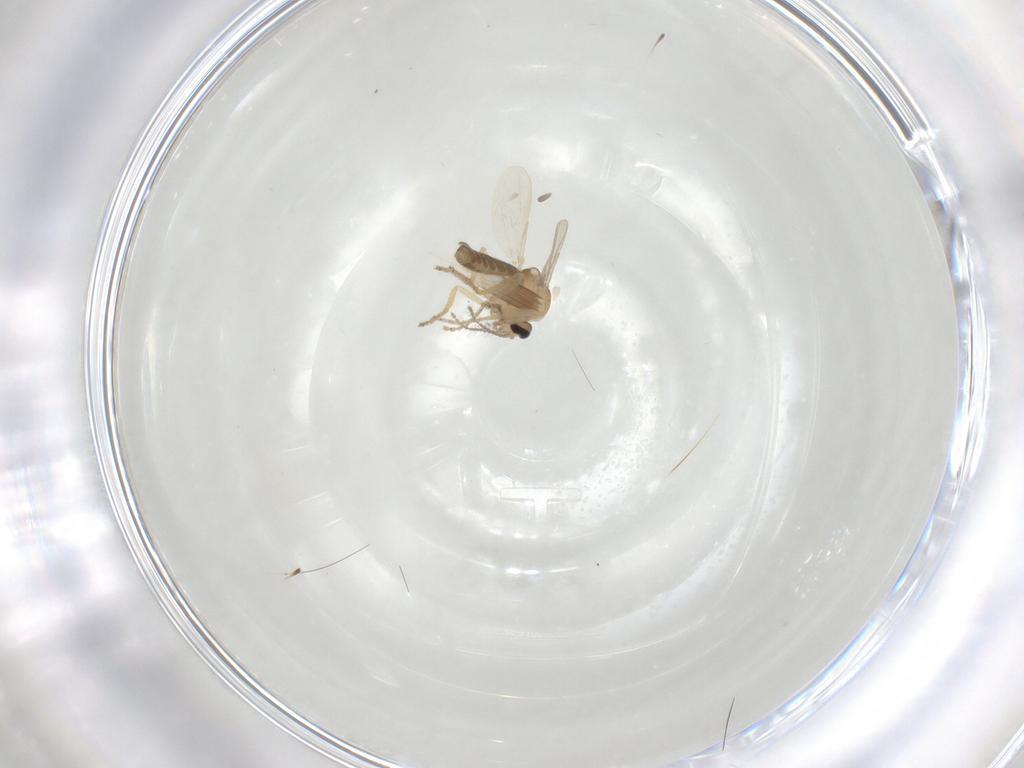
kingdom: Animalia
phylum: Arthropoda
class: Insecta
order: Diptera
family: Ceratopogonidae
